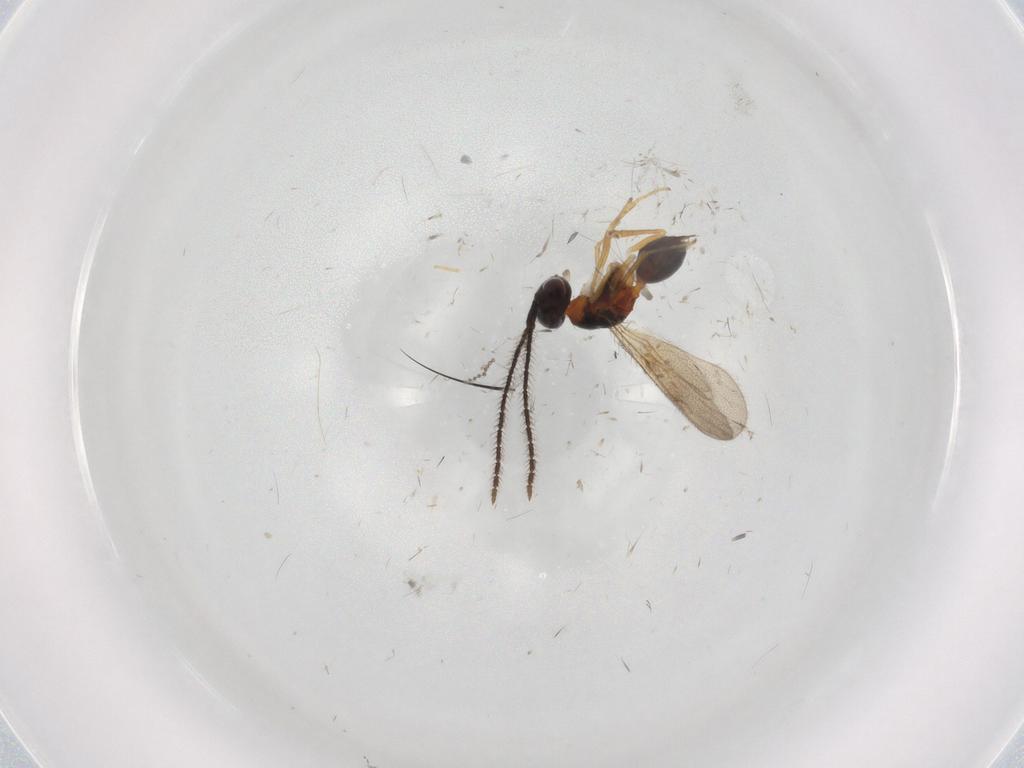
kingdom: Animalia
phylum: Arthropoda
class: Insecta
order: Hymenoptera
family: Diparidae
